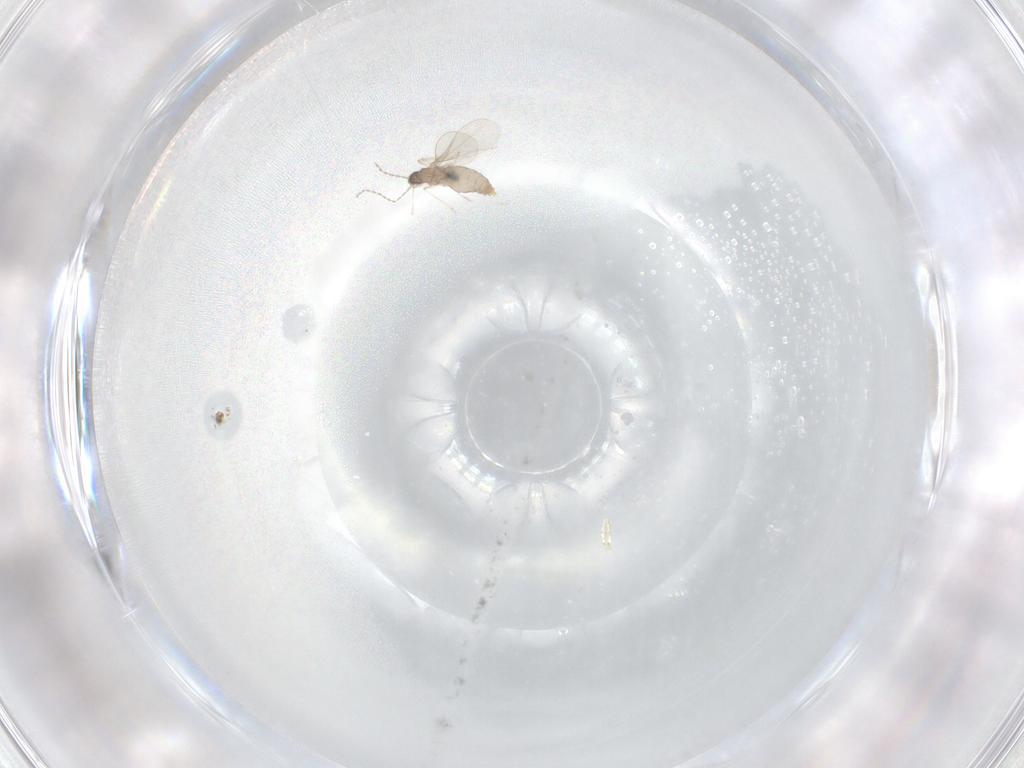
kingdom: Animalia
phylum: Arthropoda
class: Insecta
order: Diptera
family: Cecidomyiidae
